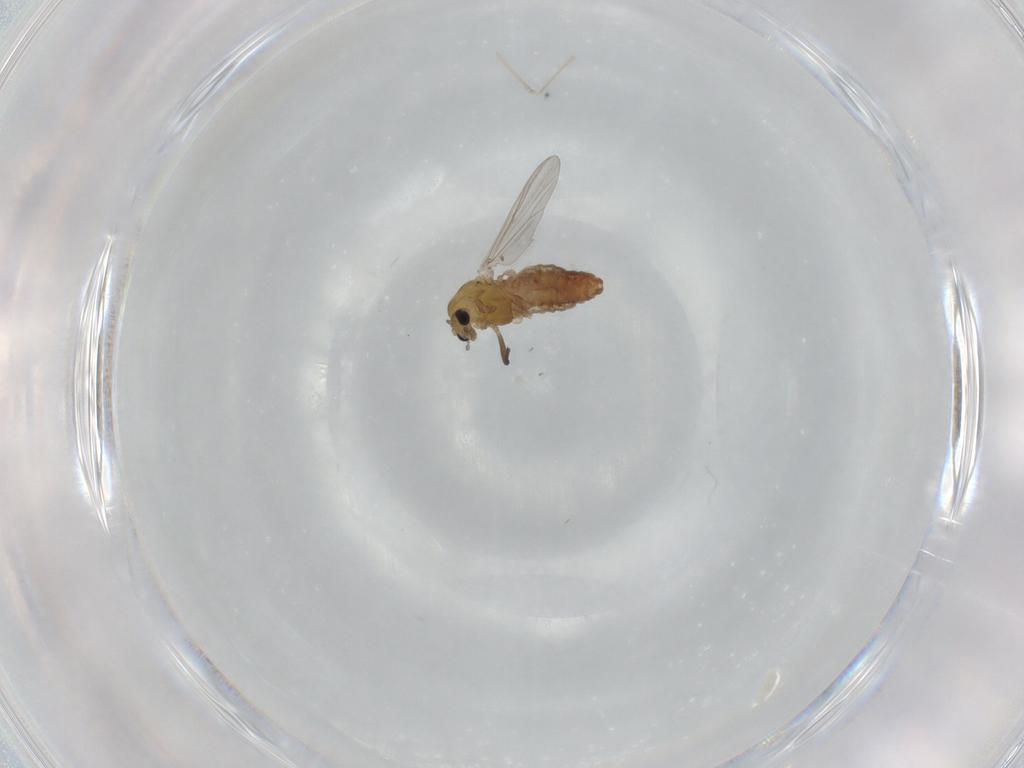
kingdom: Animalia
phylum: Arthropoda
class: Insecta
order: Diptera
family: Chironomidae
